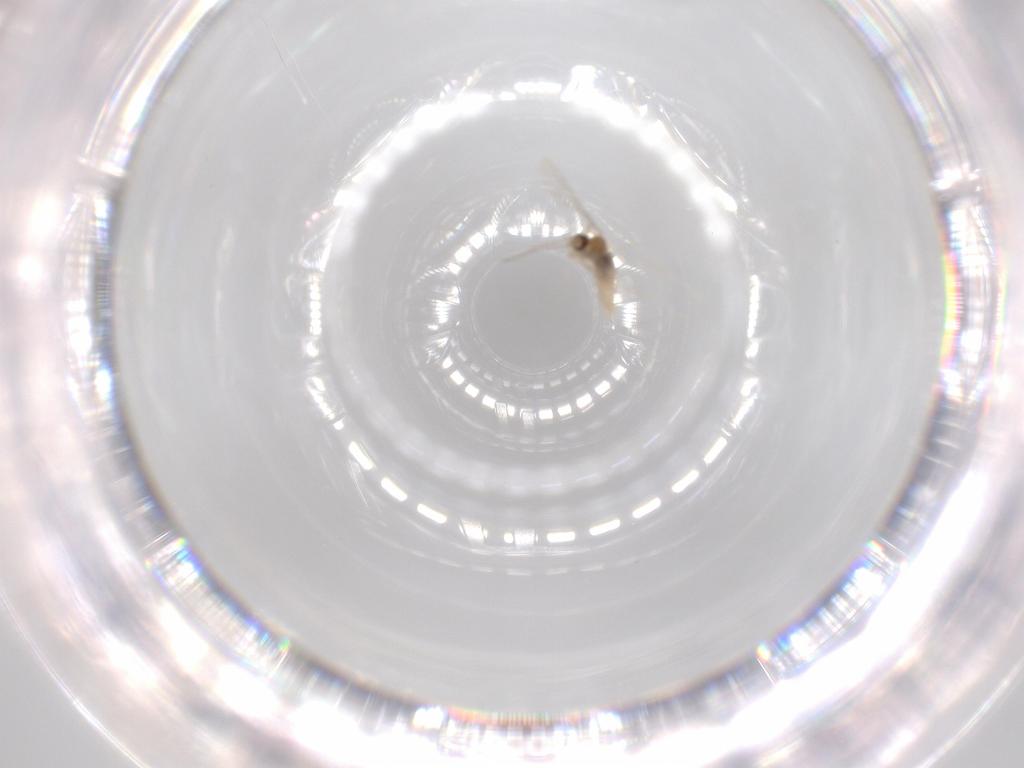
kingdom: Animalia
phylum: Arthropoda
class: Insecta
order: Diptera
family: Cecidomyiidae
